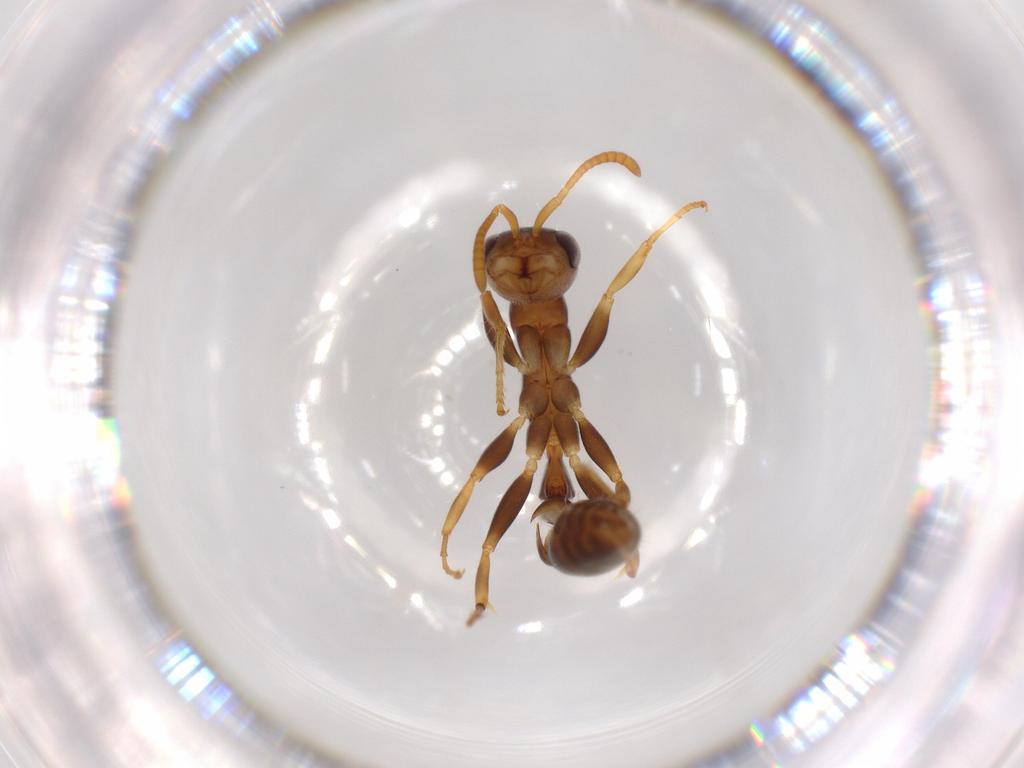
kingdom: Animalia
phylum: Arthropoda
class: Insecta
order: Hymenoptera
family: Formicidae
